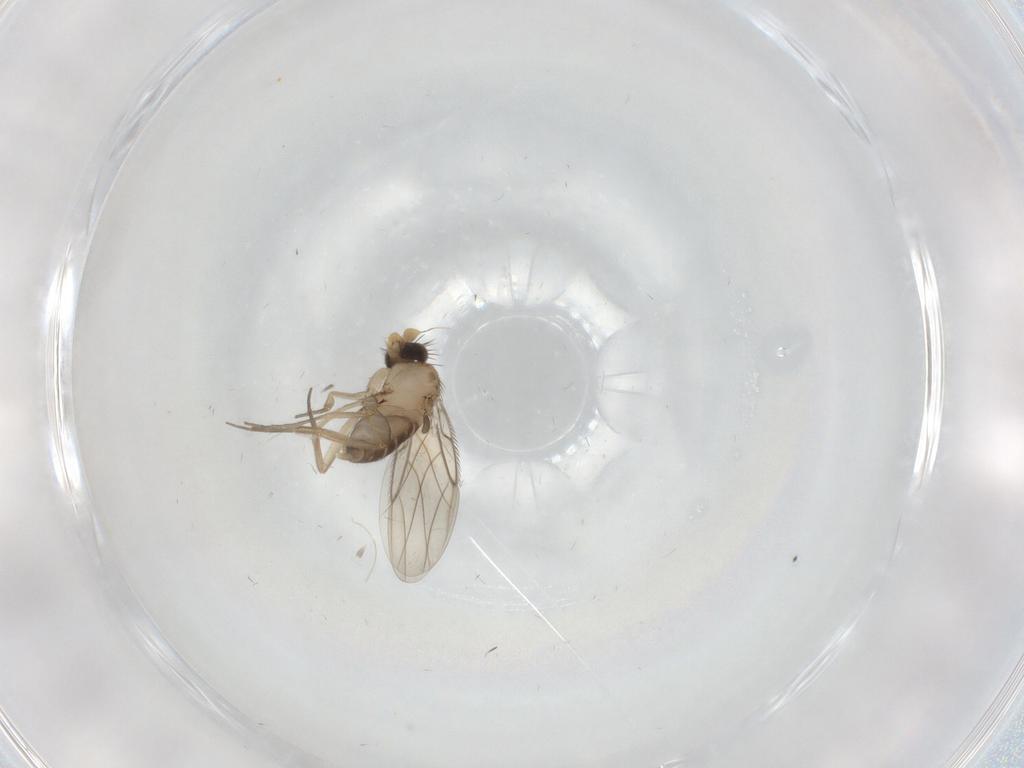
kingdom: Animalia
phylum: Arthropoda
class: Insecta
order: Diptera
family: Phoridae
